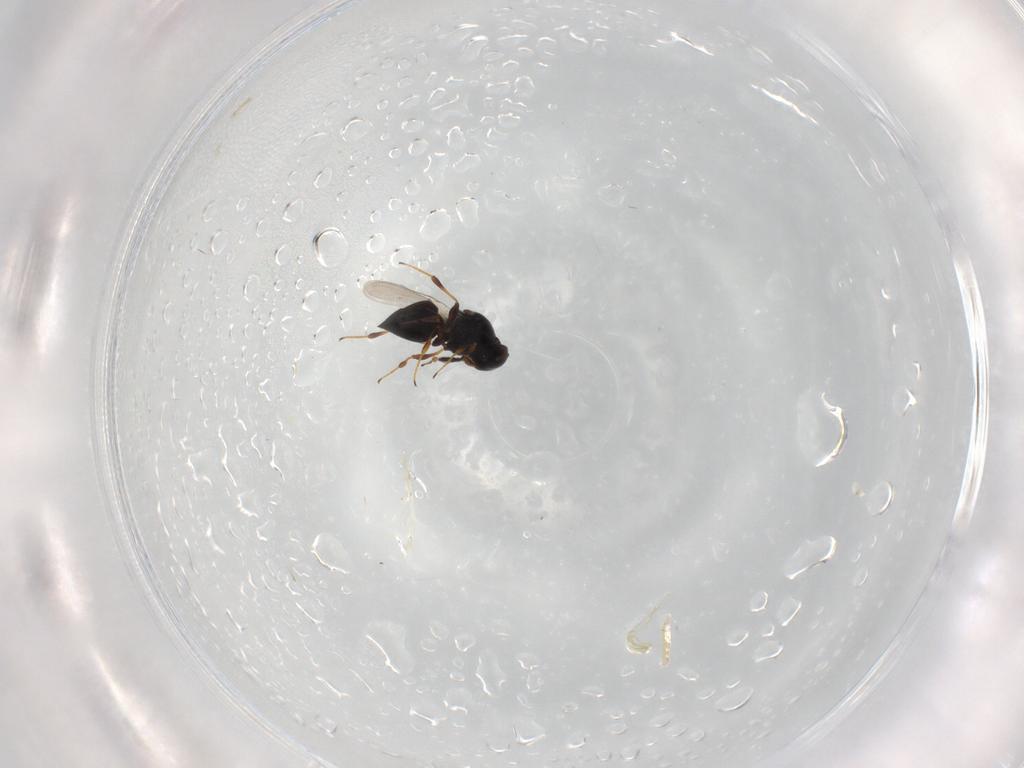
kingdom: Animalia
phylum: Arthropoda
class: Insecta
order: Hymenoptera
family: Platygastridae
